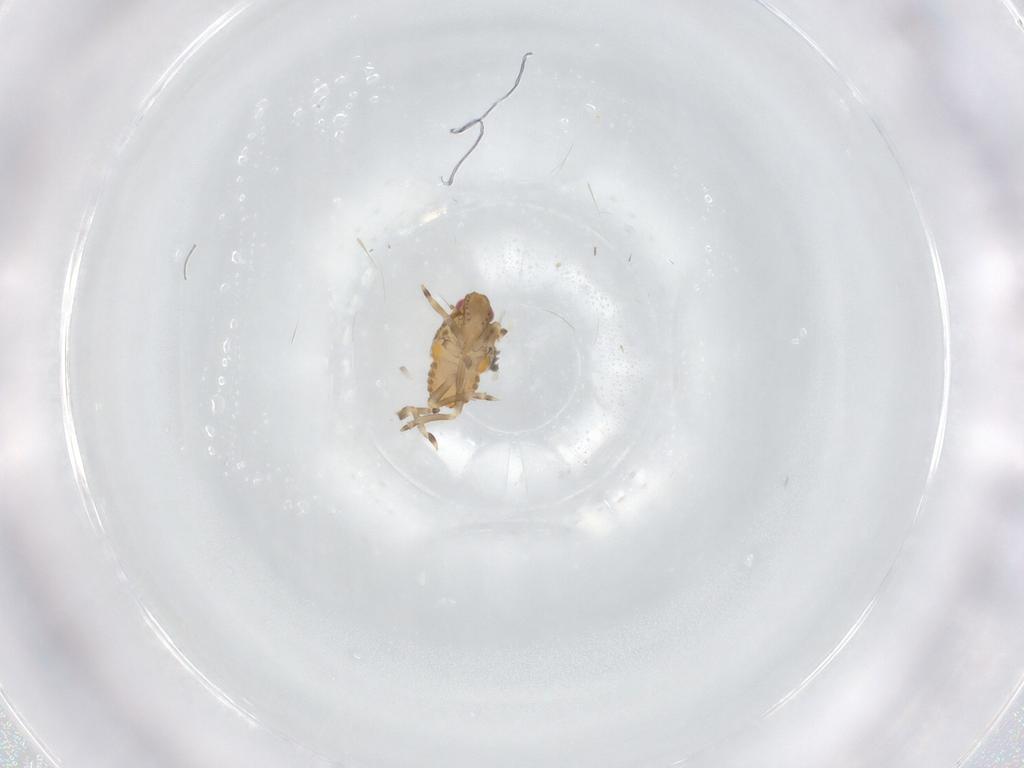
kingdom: Animalia
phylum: Arthropoda
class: Insecta
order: Hemiptera
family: Flatidae
